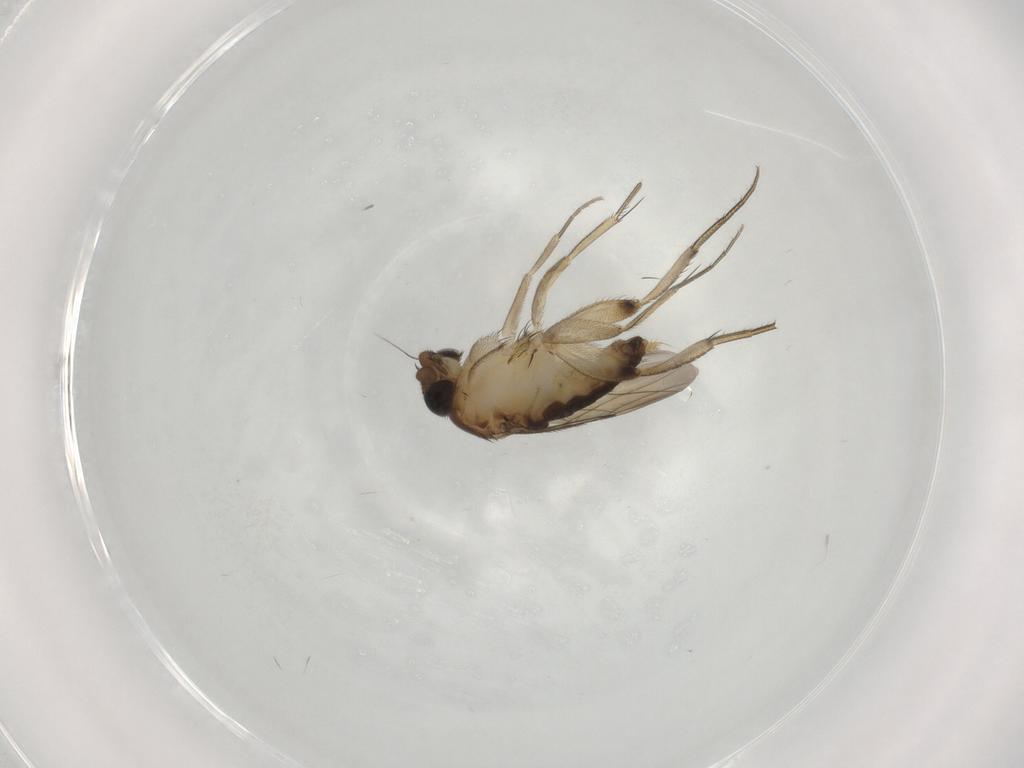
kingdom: Animalia
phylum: Arthropoda
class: Insecta
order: Diptera
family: Phoridae
